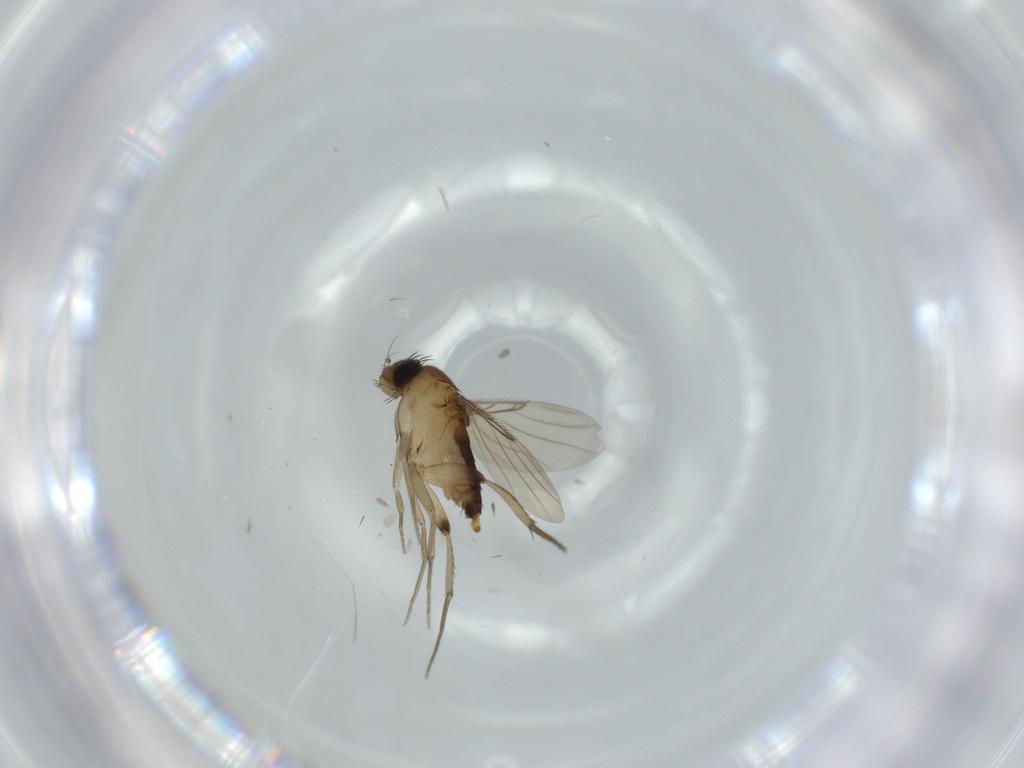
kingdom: Animalia
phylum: Arthropoda
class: Insecta
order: Diptera
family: Phoridae
